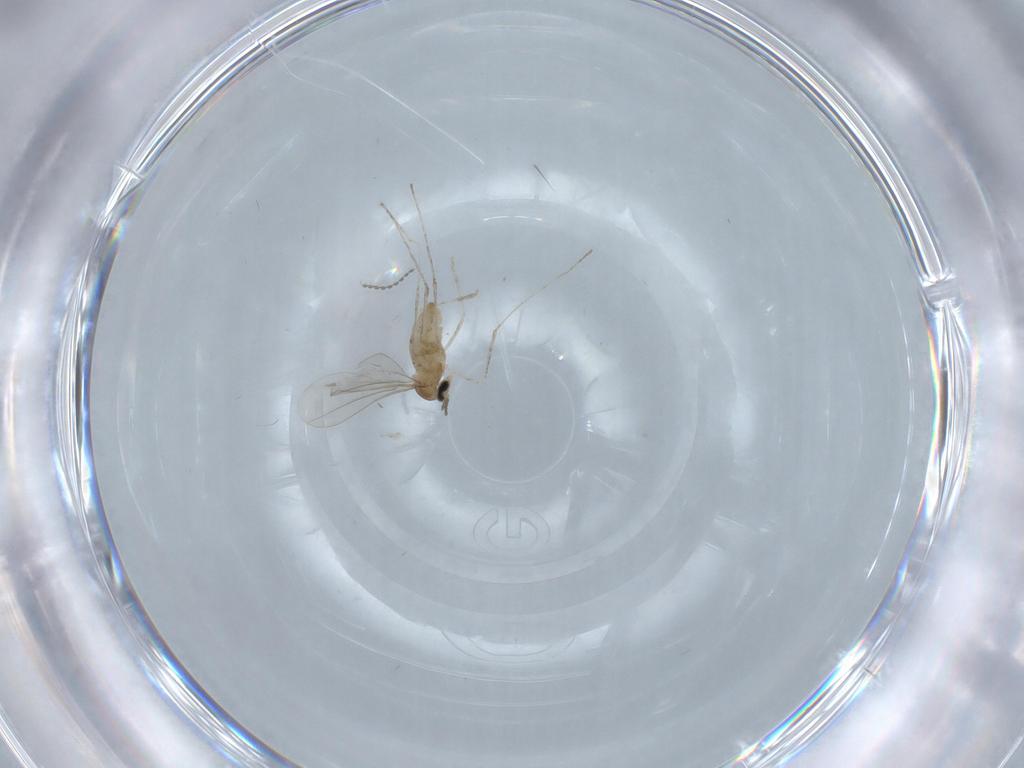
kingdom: Animalia
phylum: Arthropoda
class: Insecta
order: Diptera
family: Cecidomyiidae
